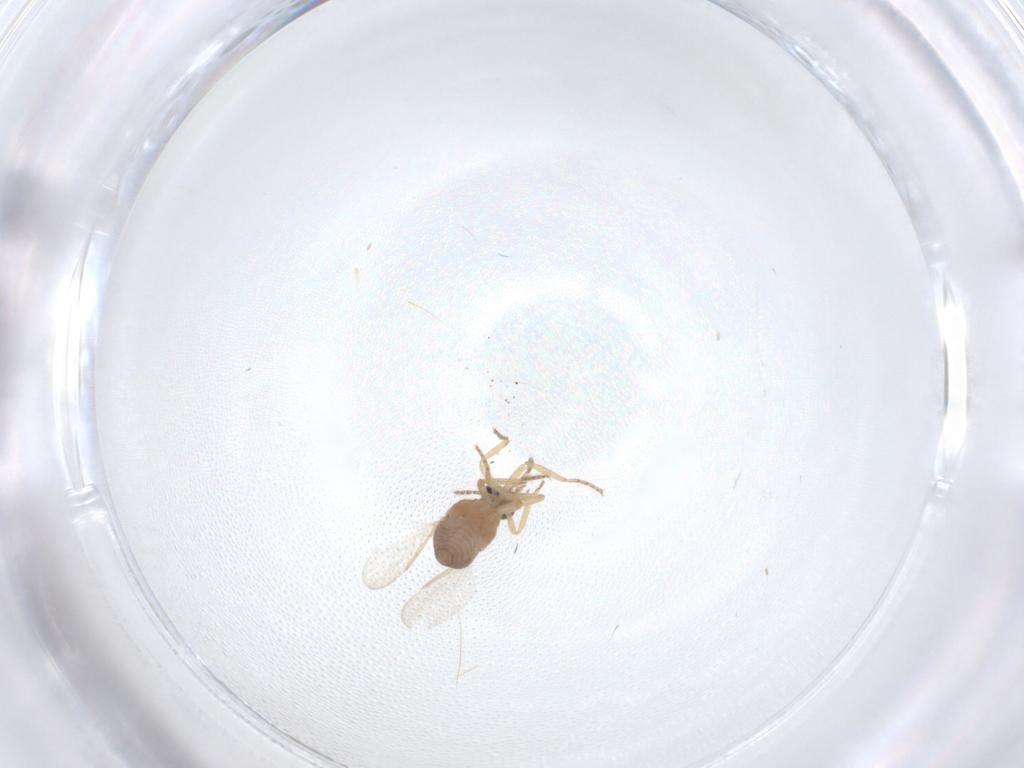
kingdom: Animalia
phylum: Arthropoda
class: Insecta
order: Diptera
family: Ceratopogonidae
